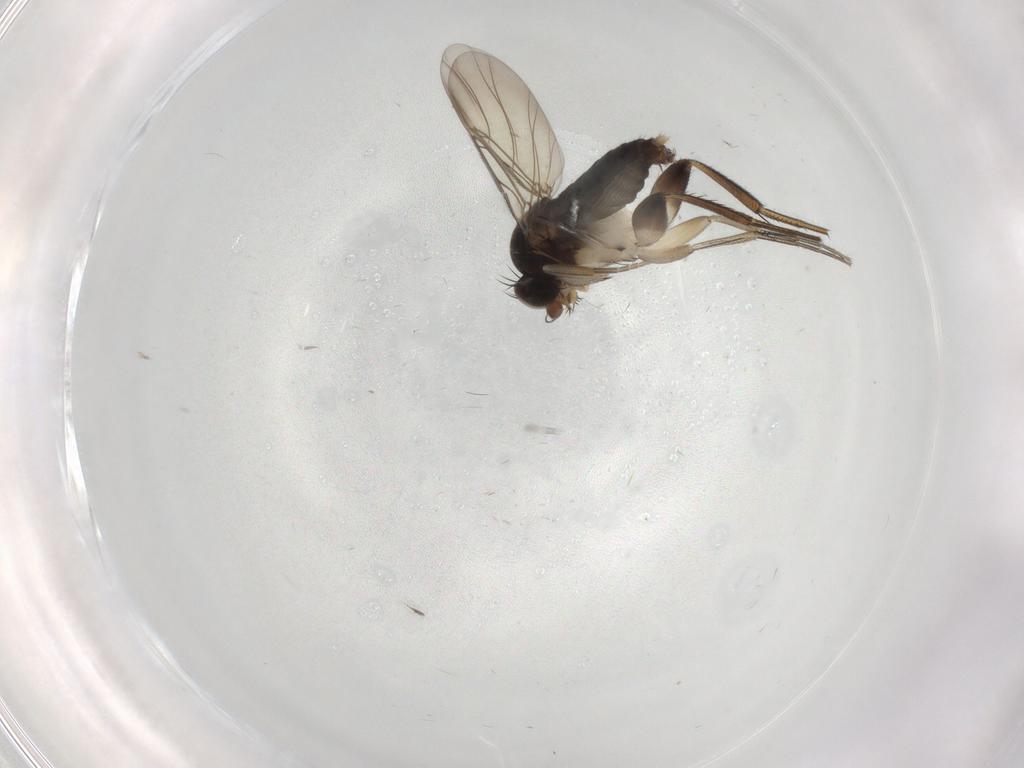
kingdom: Animalia
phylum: Arthropoda
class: Insecta
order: Diptera
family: Phoridae
